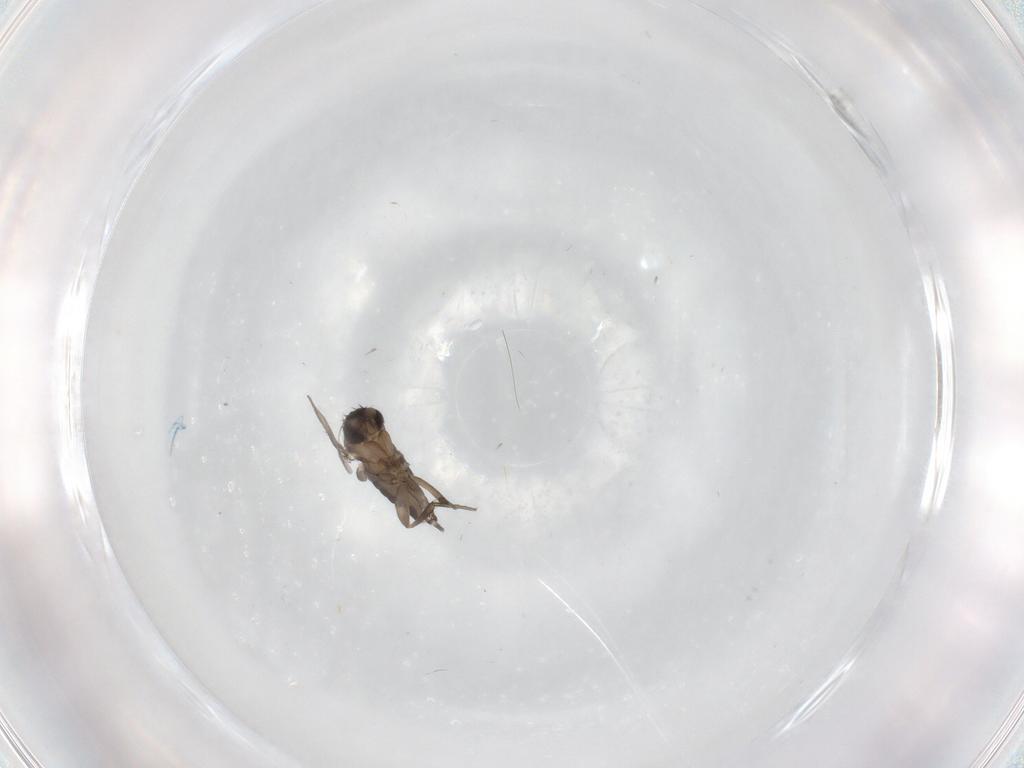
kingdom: Animalia
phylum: Arthropoda
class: Insecta
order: Diptera
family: Phoridae
